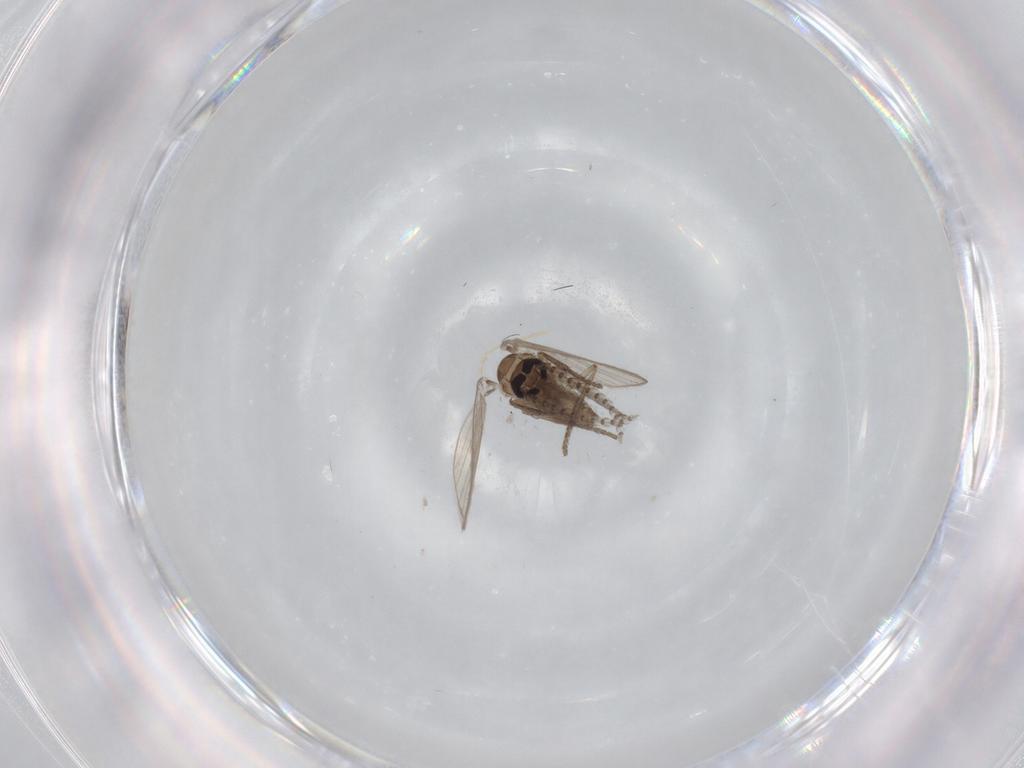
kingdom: Animalia
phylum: Arthropoda
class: Insecta
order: Diptera
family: Psychodidae
